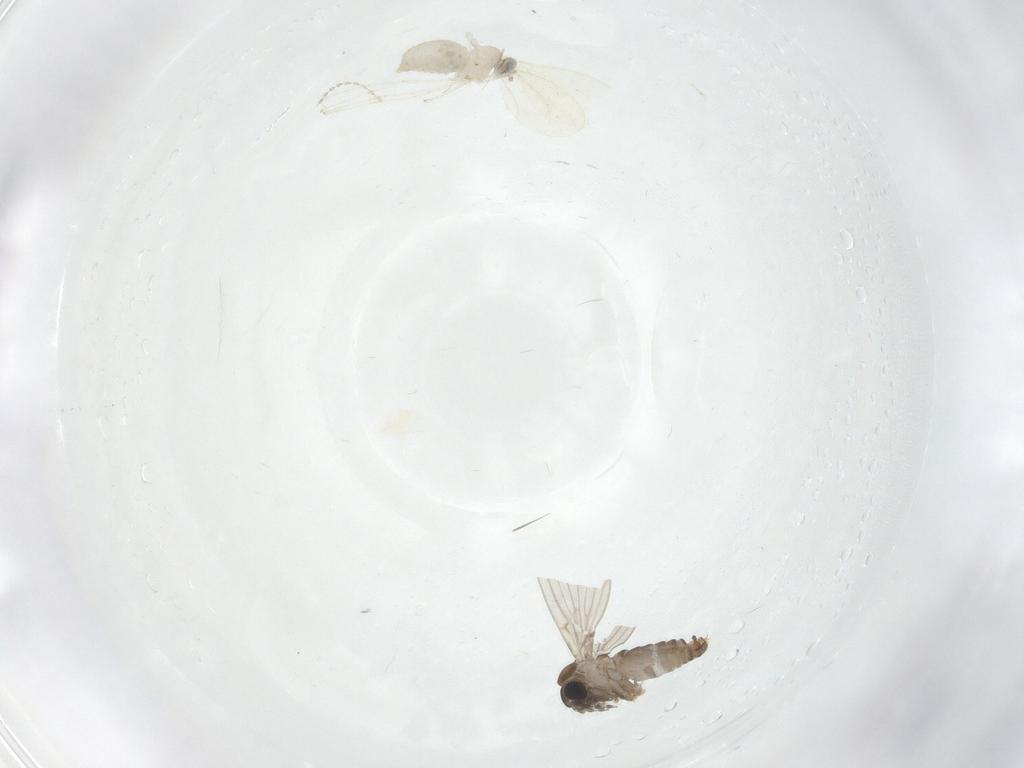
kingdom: Animalia
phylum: Arthropoda
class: Insecta
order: Diptera
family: Cecidomyiidae
